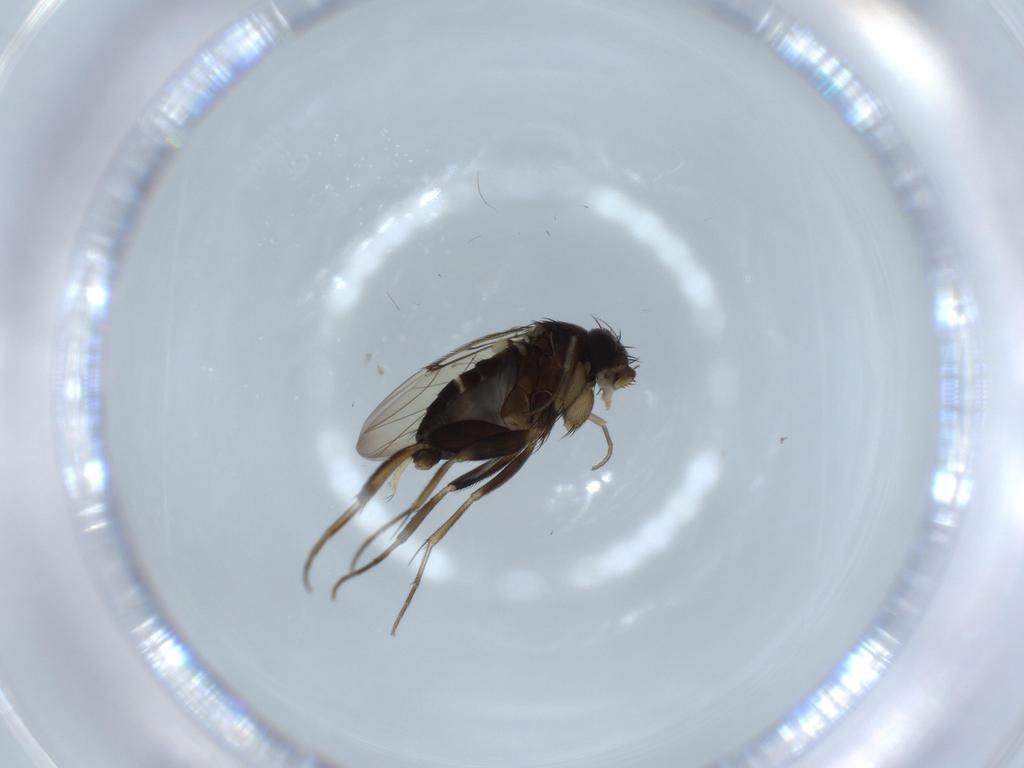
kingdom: Animalia
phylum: Arthropoda
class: Insecta
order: Diptera
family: Phoridae
